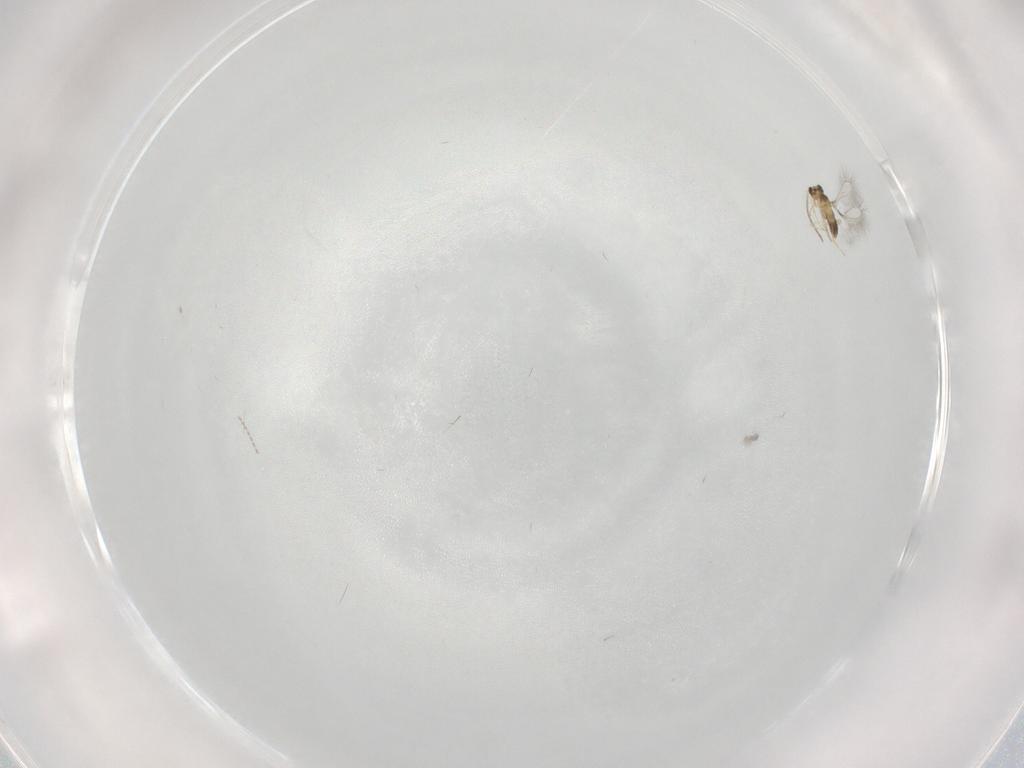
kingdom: Animalia
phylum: Arthropoda
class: Insecta
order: Hymenoptera
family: Mymaridae
